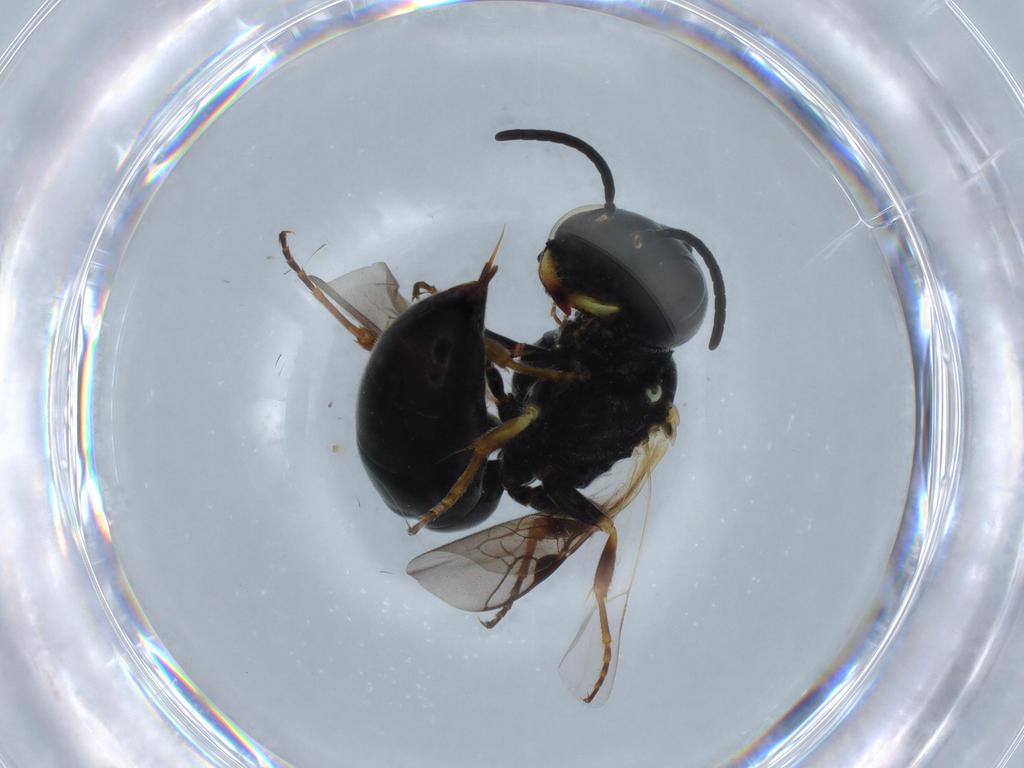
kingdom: Animalia
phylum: Arthropoda
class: Insecta
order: Hymenoptera
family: Crabronidae
